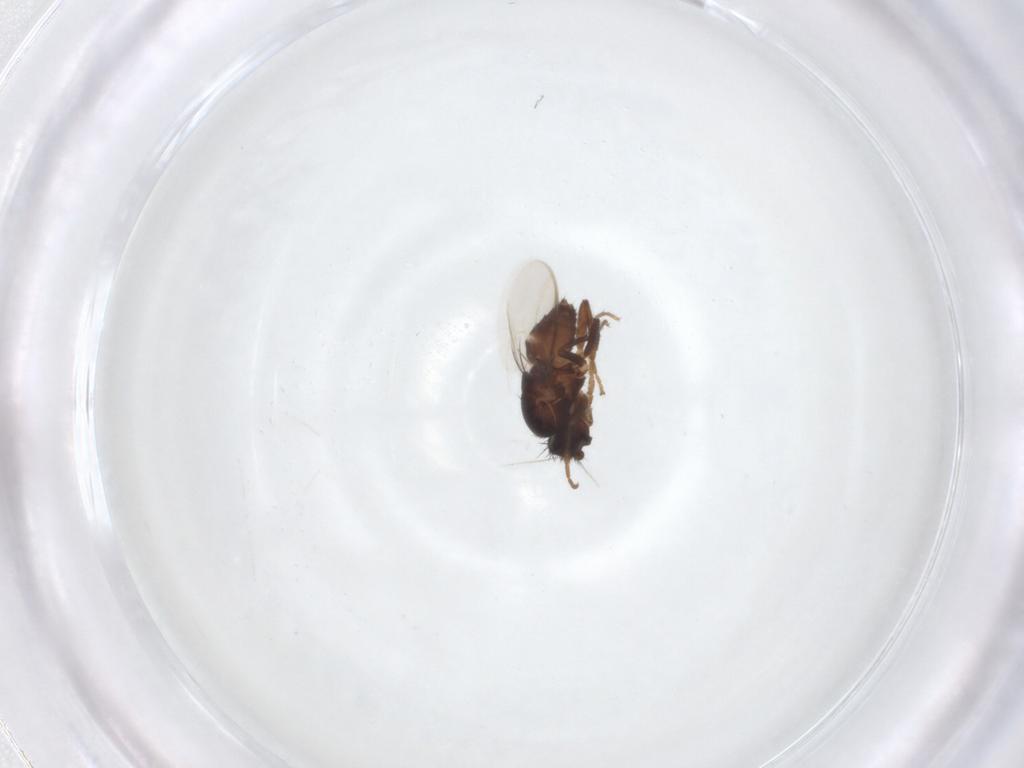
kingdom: Animalia
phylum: Arthropoda
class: Insecta
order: Diptera
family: Sphaeroceridae
